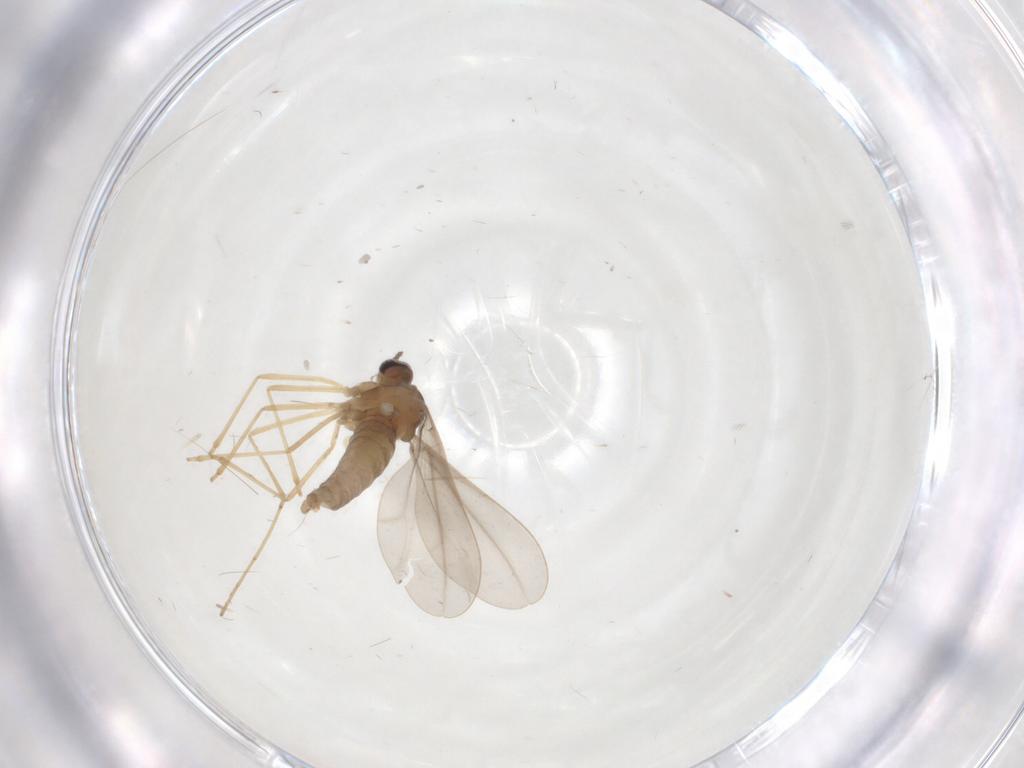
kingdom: Animalia
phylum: Arthropoda
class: Insecta
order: Diptera
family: Cecidomyiidae
